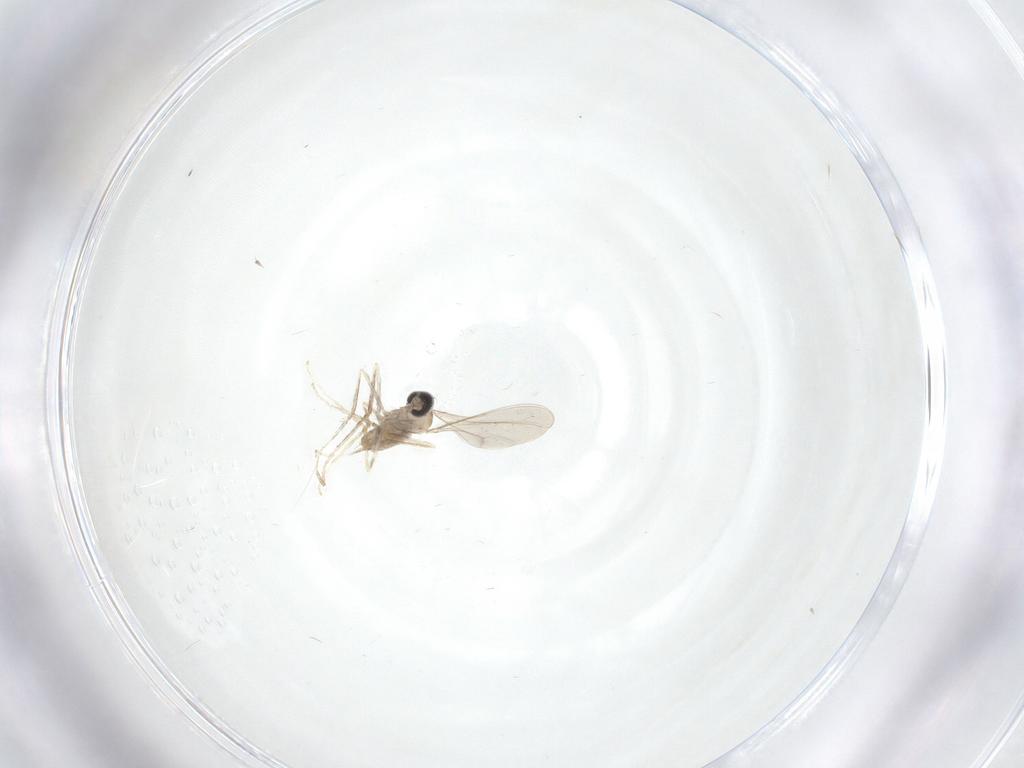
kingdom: Animalia
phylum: Arthropoda
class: Insecta
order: Diptera
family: Cecidomyiidae
